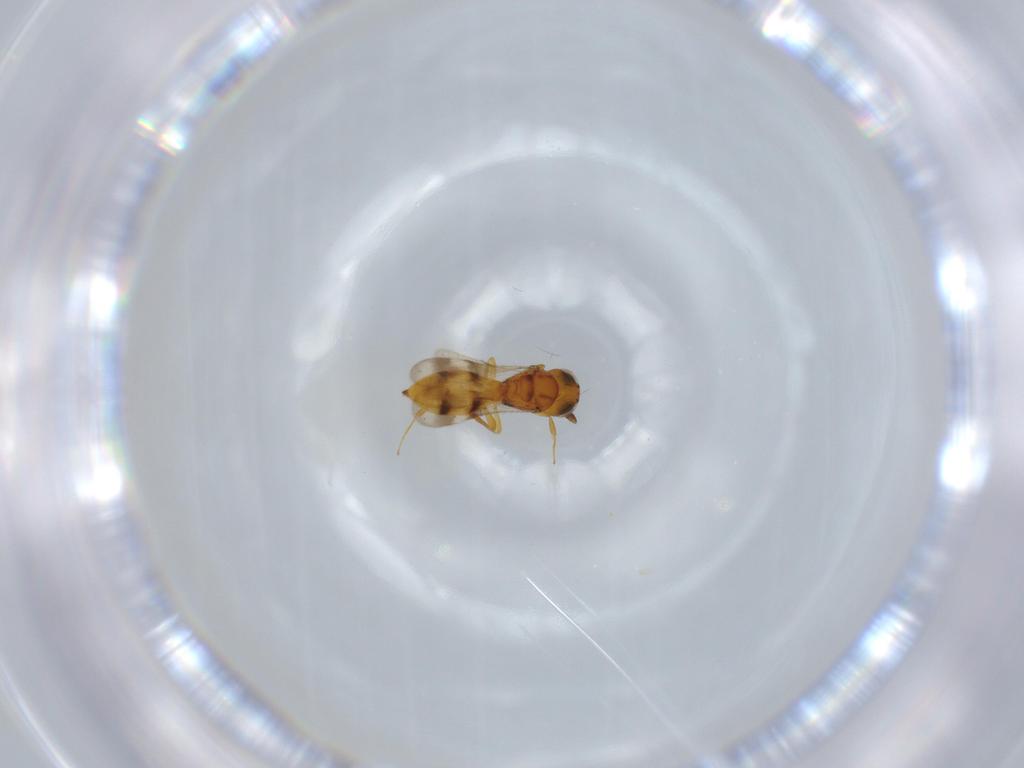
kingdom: Animalia
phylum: Arthropoda
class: Insecta
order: Hymenoptera
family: Scelionidae
